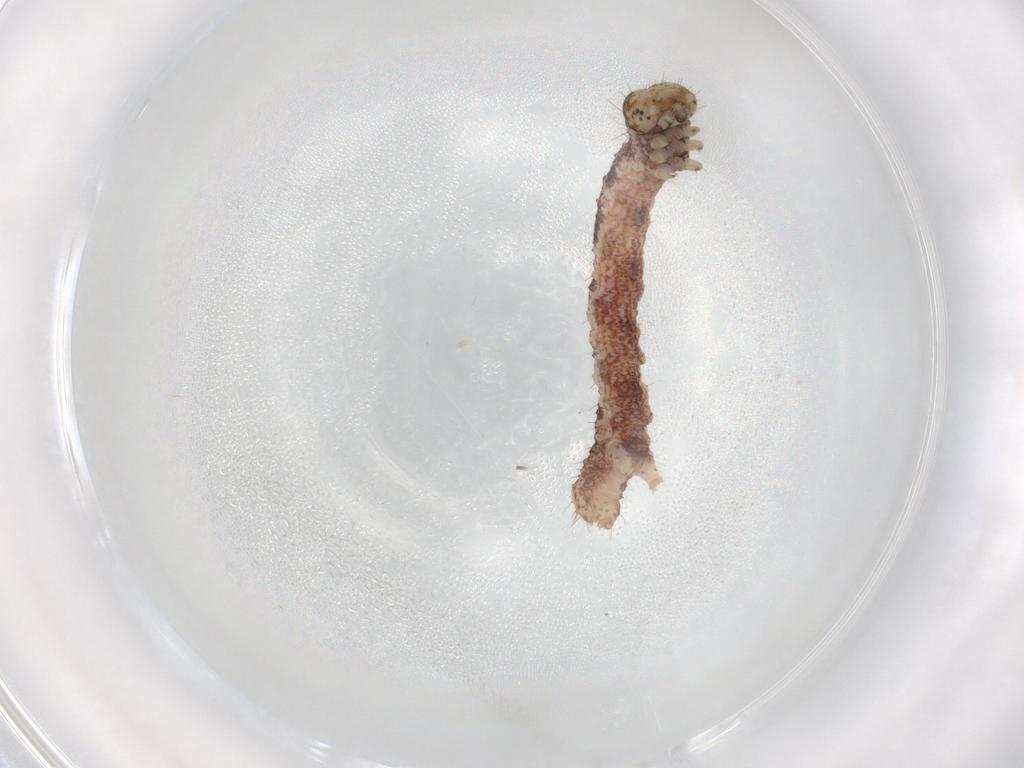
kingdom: Animalia
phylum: Arthropoda
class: Insecta
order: Lepidoptera
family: Geometridae
